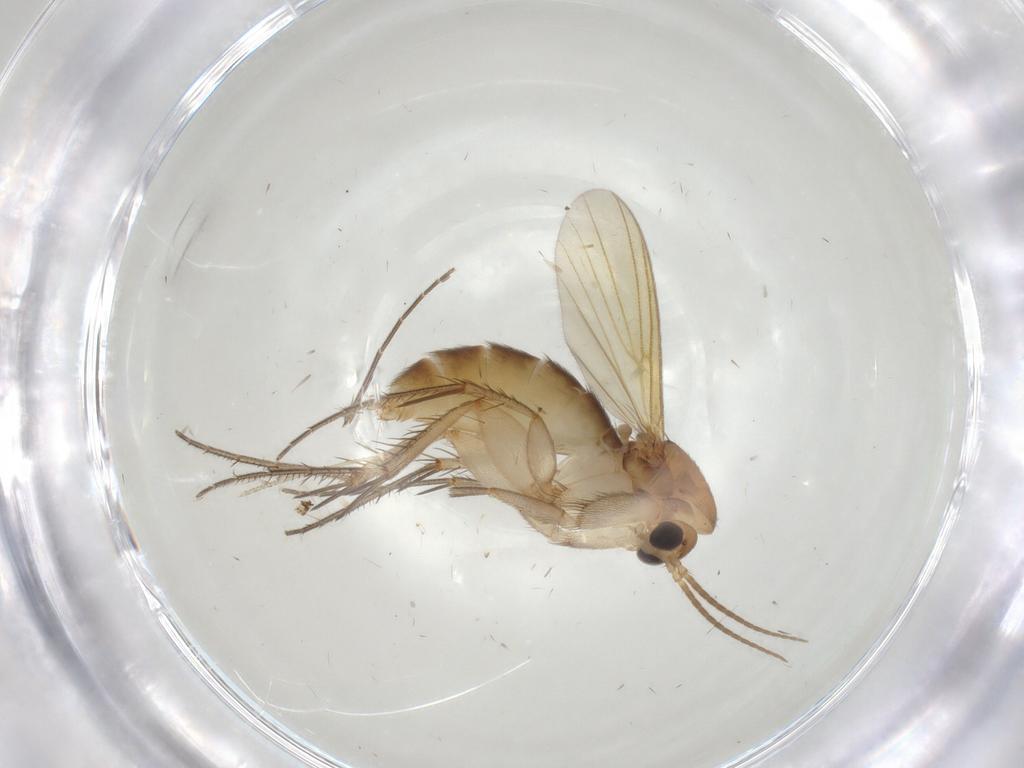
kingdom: Animalia
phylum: Arthropoda
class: Insecta
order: Diptera
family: Mycetophilidae
